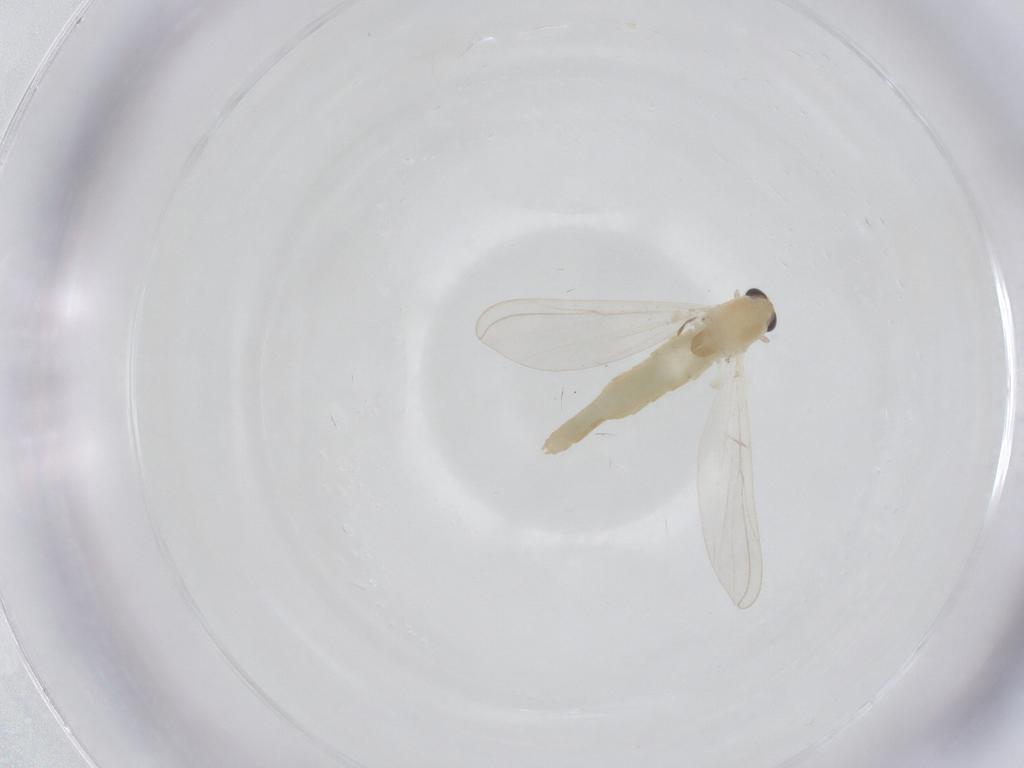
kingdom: Animalia
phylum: Arthropoda
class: Insecta
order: Diptera
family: Chironomidae
